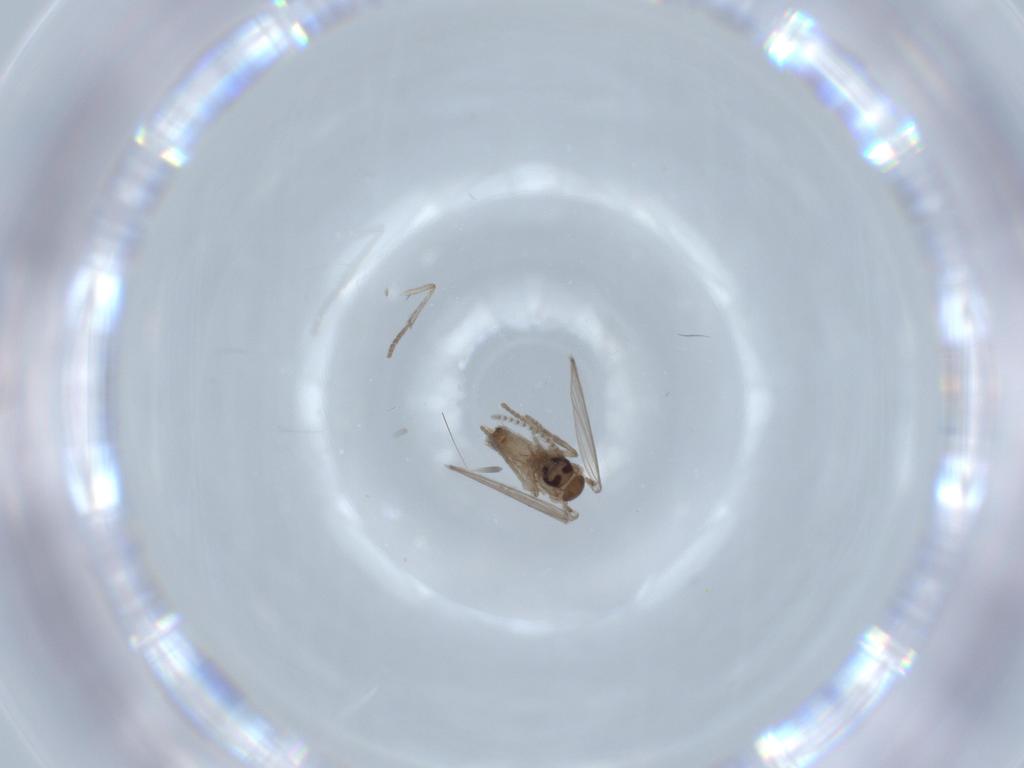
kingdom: Animalia
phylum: Arthropoda
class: Insecta
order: Diptera
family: Psychodidae
